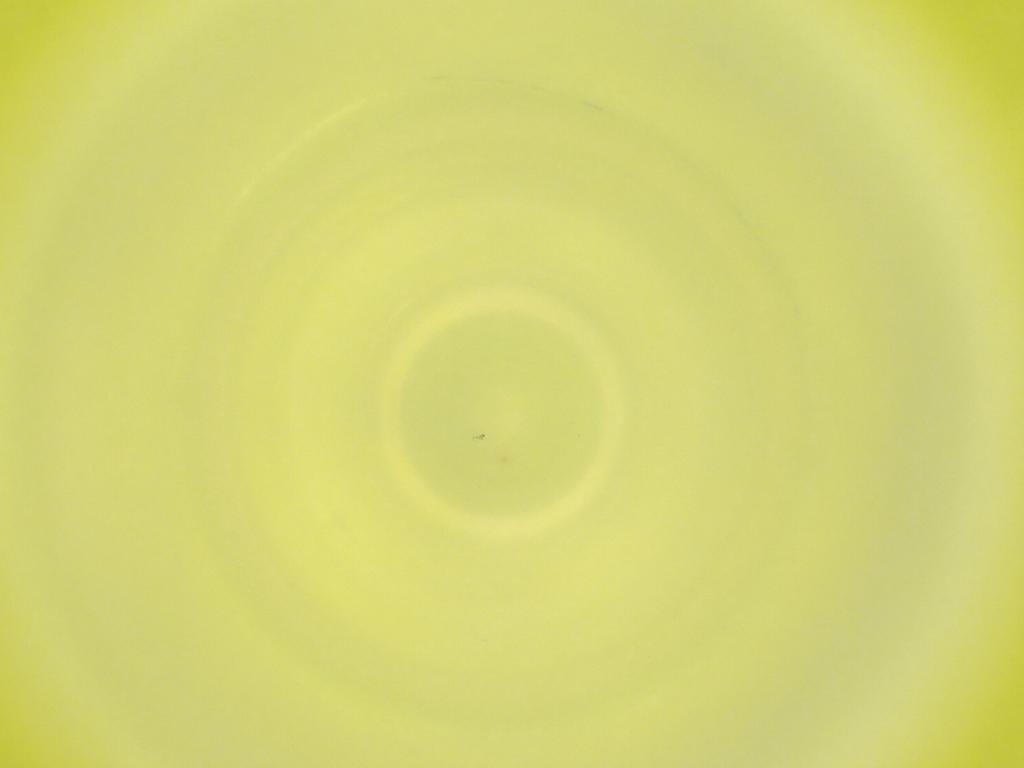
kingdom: Animalia
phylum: Arthropoda
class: Insecta
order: Diptera
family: Cecidomyiidae
